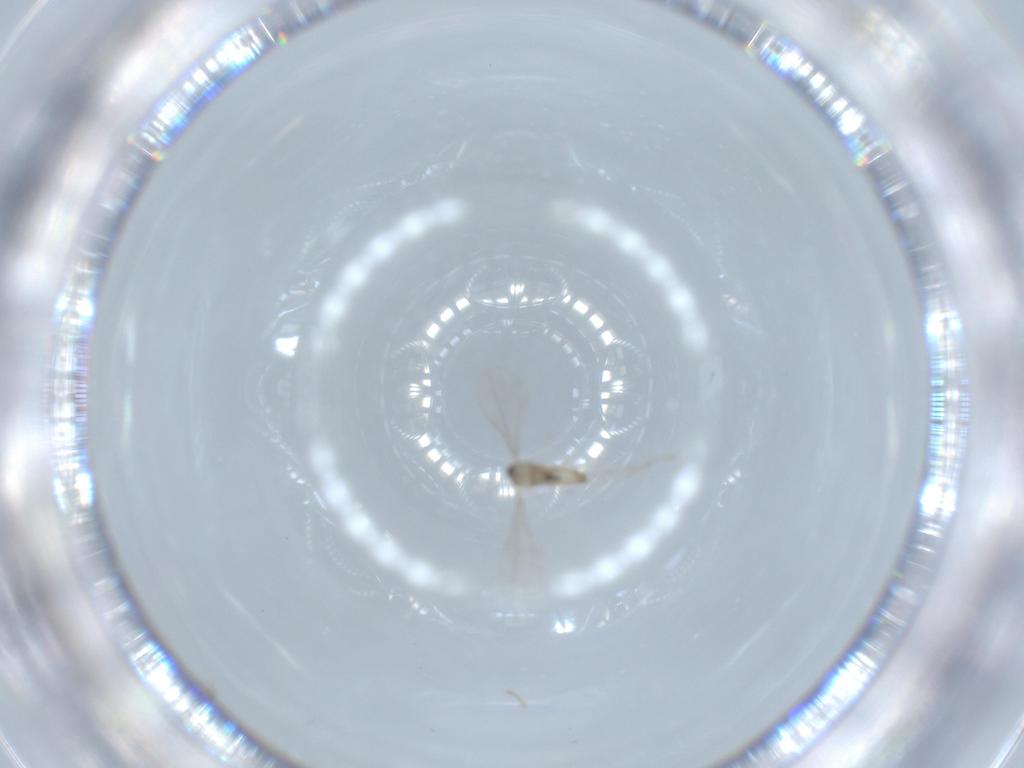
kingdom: Animalia
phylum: Arthropoda
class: Insecta
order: Diptera
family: Cecidomyiidae
